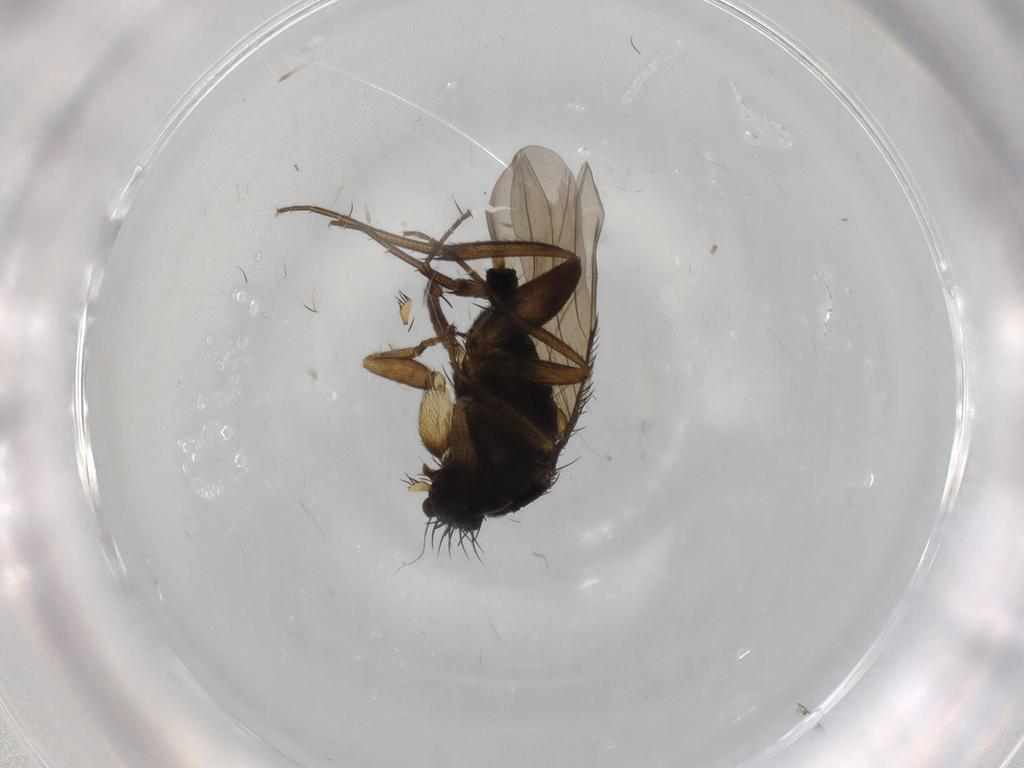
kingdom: Animalia
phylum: Arthropoda
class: Insecta
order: Diptera
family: Phoridae
